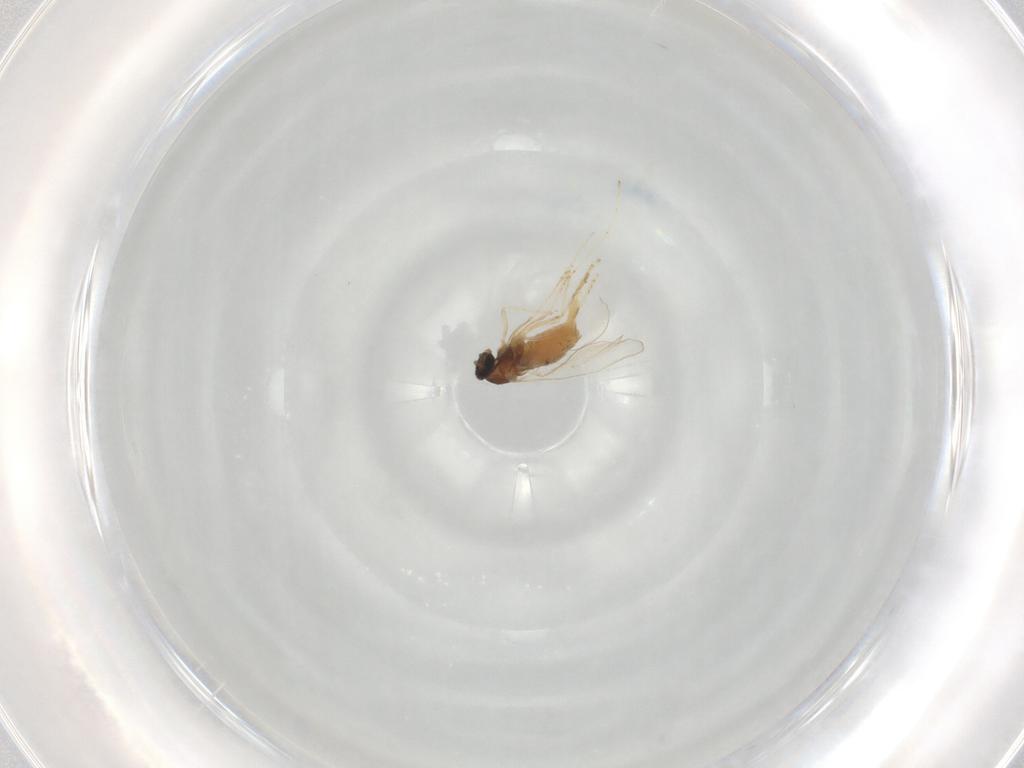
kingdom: Animalia
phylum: Arthropoda
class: Insecta
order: Diptera
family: Cecidomyiidae
